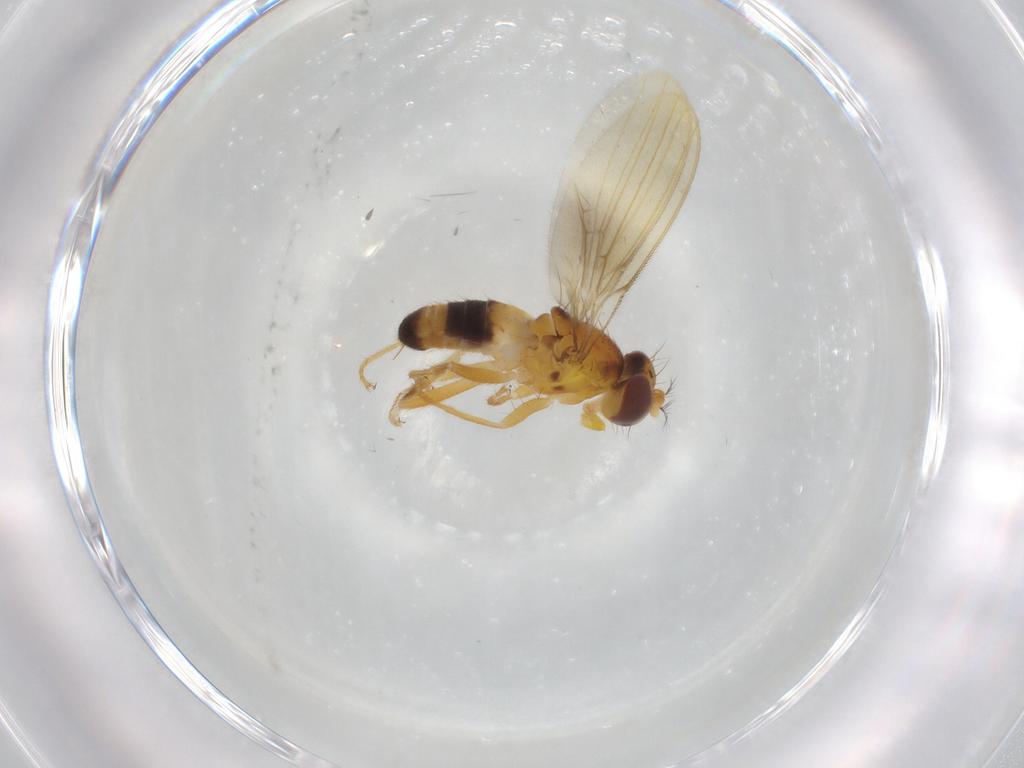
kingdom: Animalia
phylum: Arthropoda
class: Insecta
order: Diptera
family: Periscelididae
